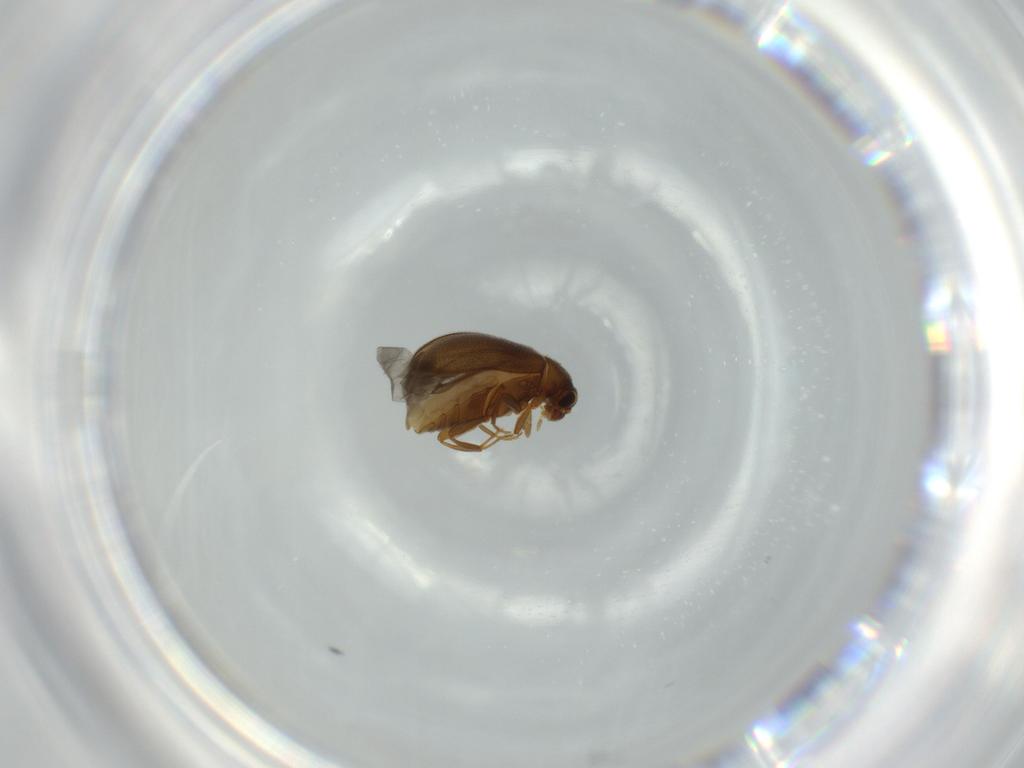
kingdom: Animalia
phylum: Arthropoda
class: Insecta
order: Coleoptera
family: Aderidae
